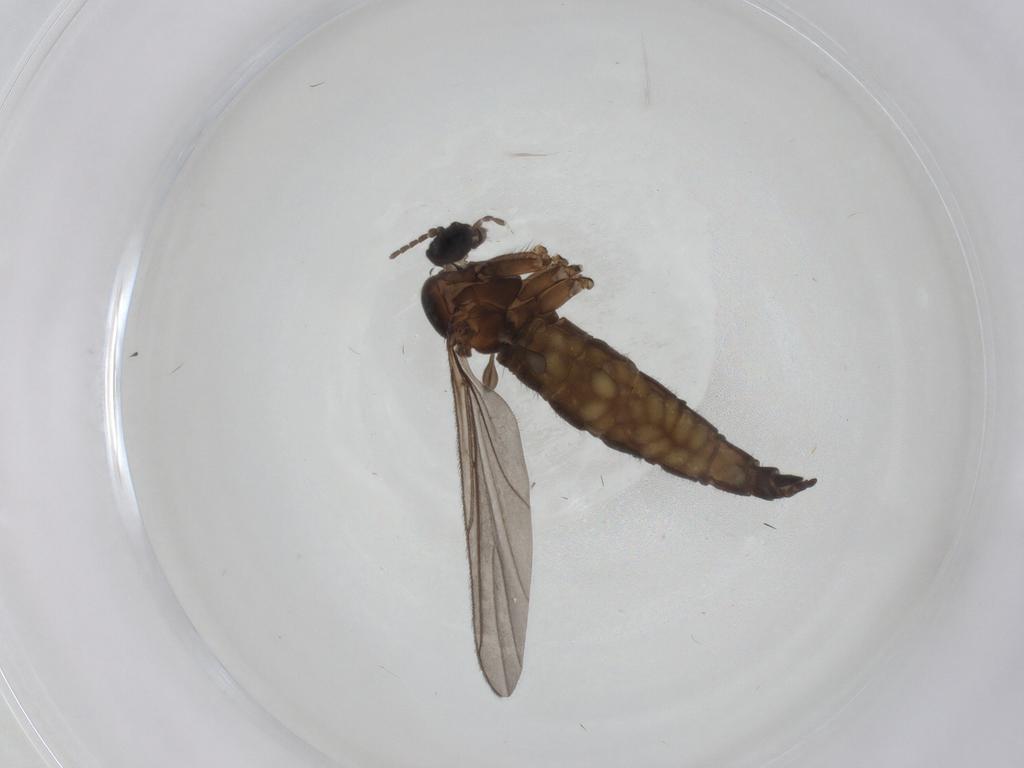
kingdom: Animalia
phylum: Arthropoda
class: Insecta
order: Diptera
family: Sciaridae
